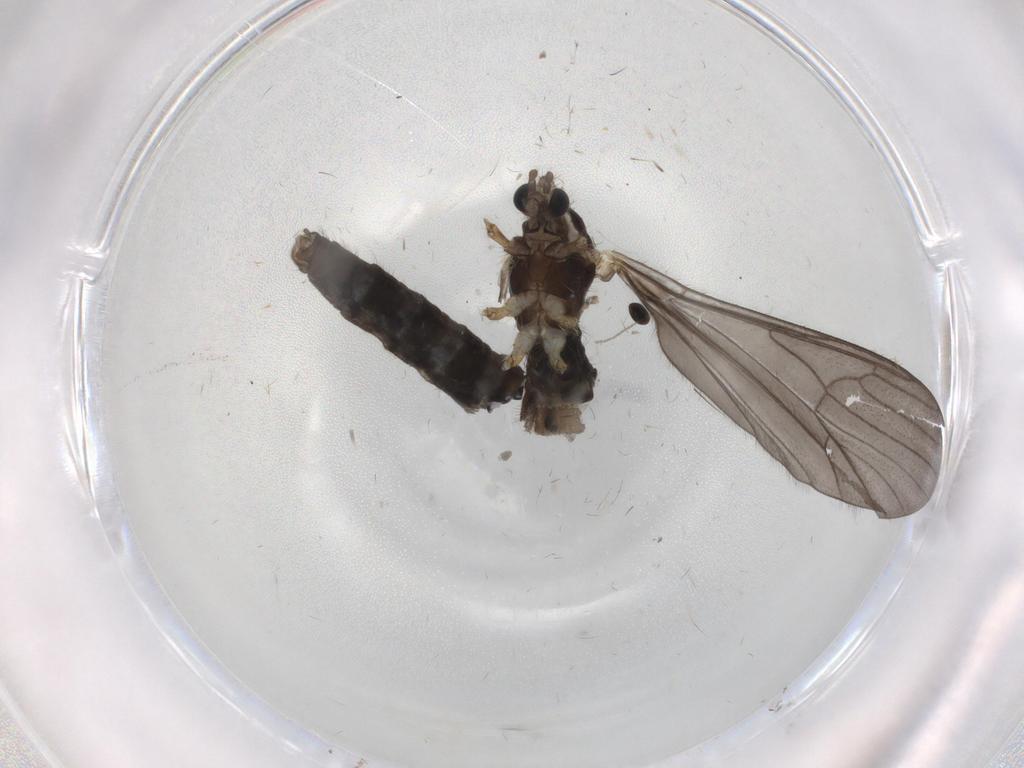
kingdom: Animalia
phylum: Arthropoda
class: Insecta
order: Diptera
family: Limoniidae
